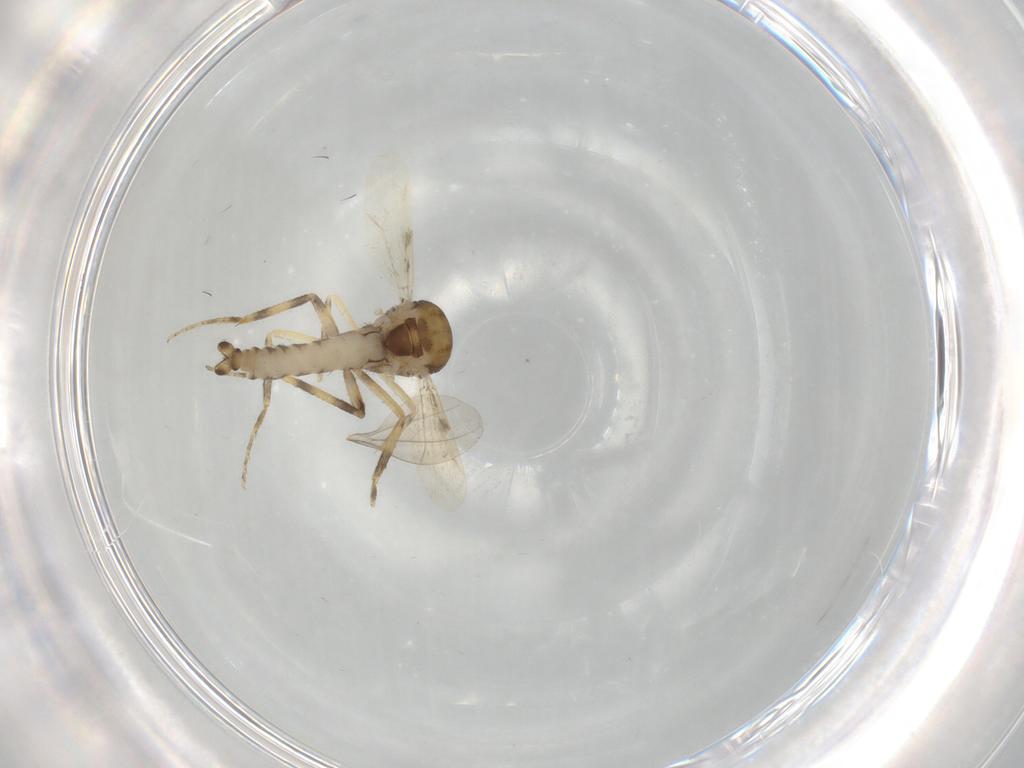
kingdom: Animalia
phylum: Arthropoda
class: Insecta
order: Diptera
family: Ceratopogonidae
